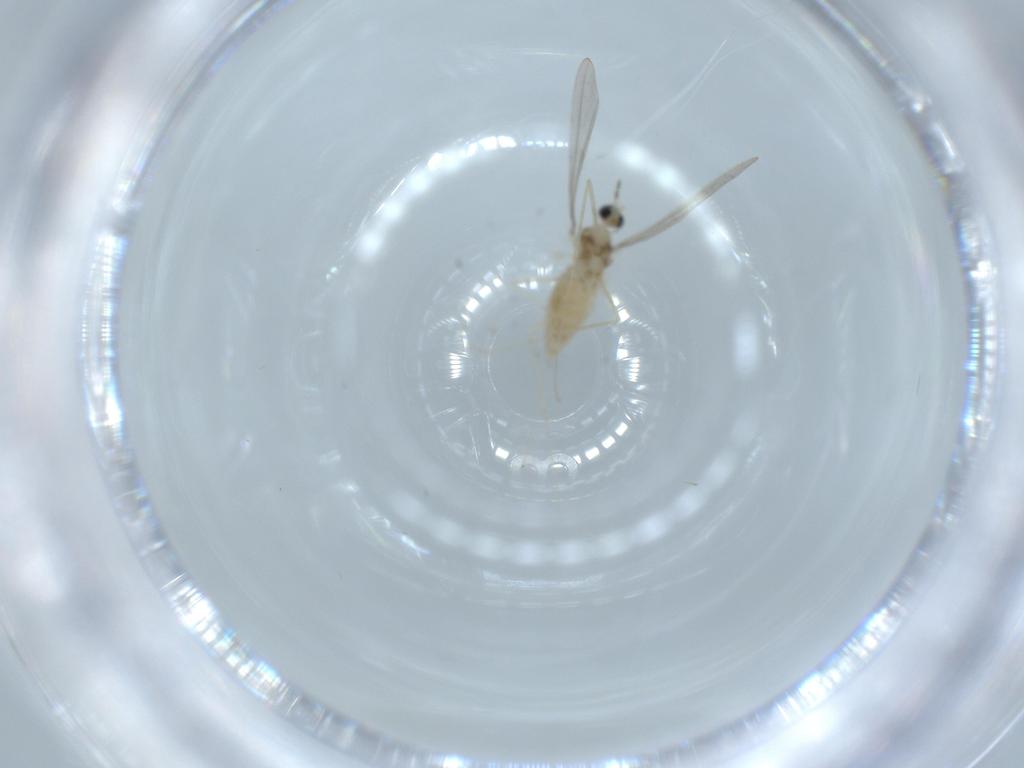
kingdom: Animalia
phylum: Arthropoda
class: Insecta
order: Diptera
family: Cecidomyiidae
